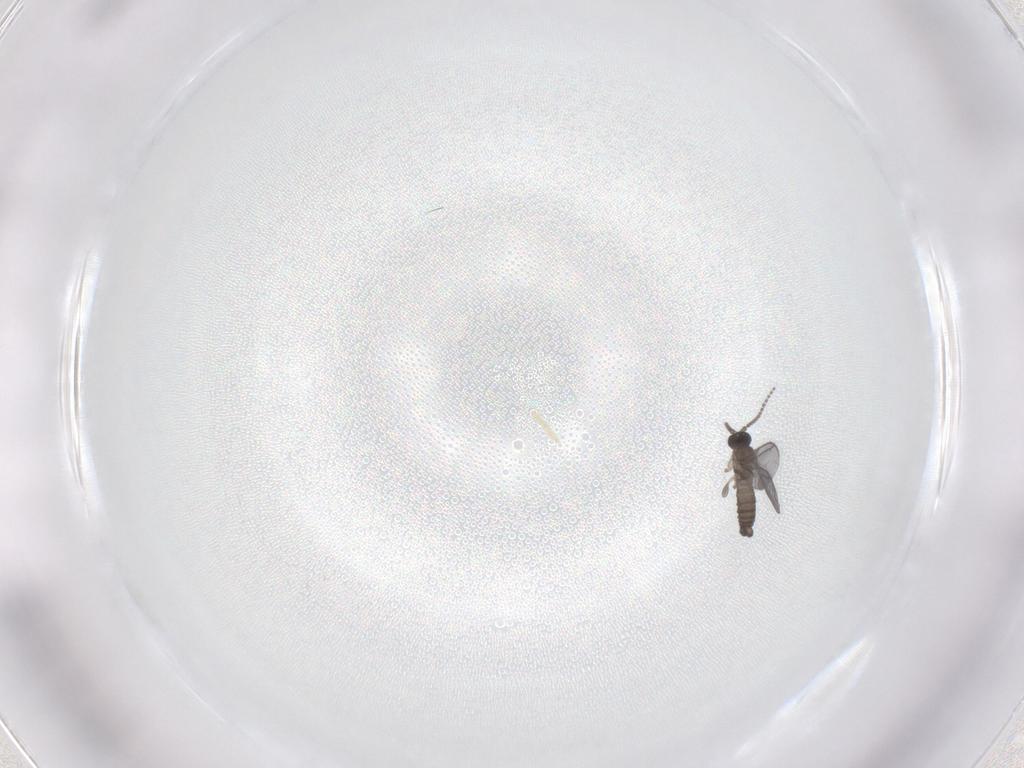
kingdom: Animalia
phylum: Arthropoda
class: Insecta
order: Diptera
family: Sciaridae
